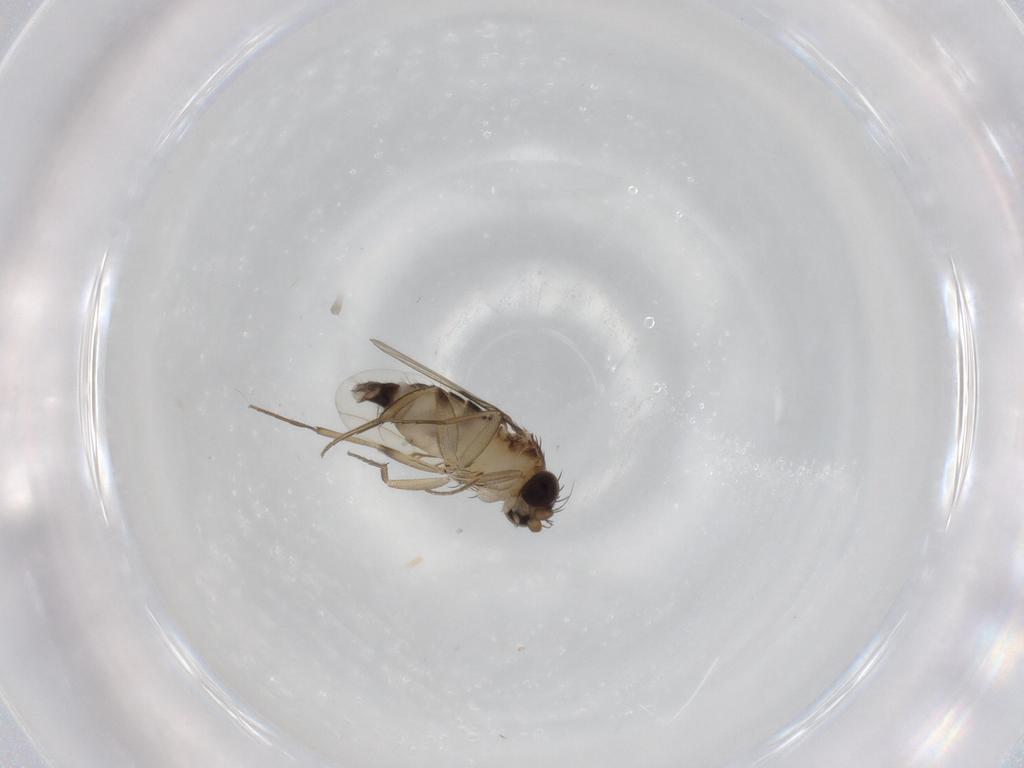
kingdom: Animalia
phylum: Arthropoda
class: Insecta
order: Diptera
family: Phoridae
